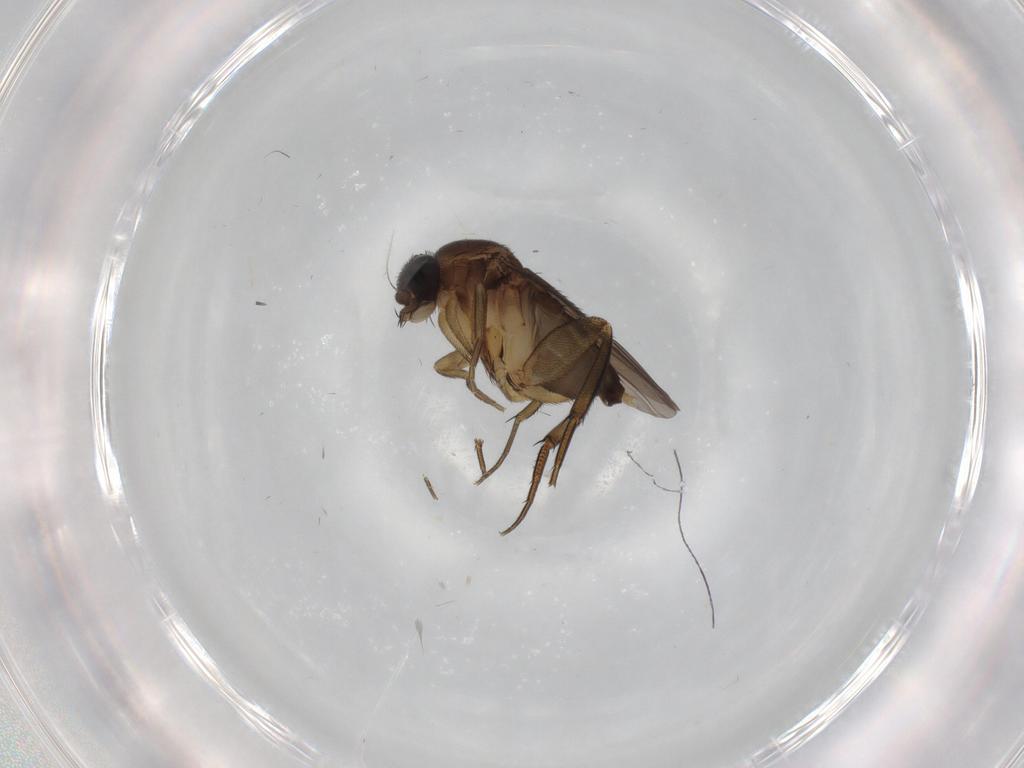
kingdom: Animalia
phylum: Arthropoda
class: Insecta
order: Diptera
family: Phoridae
